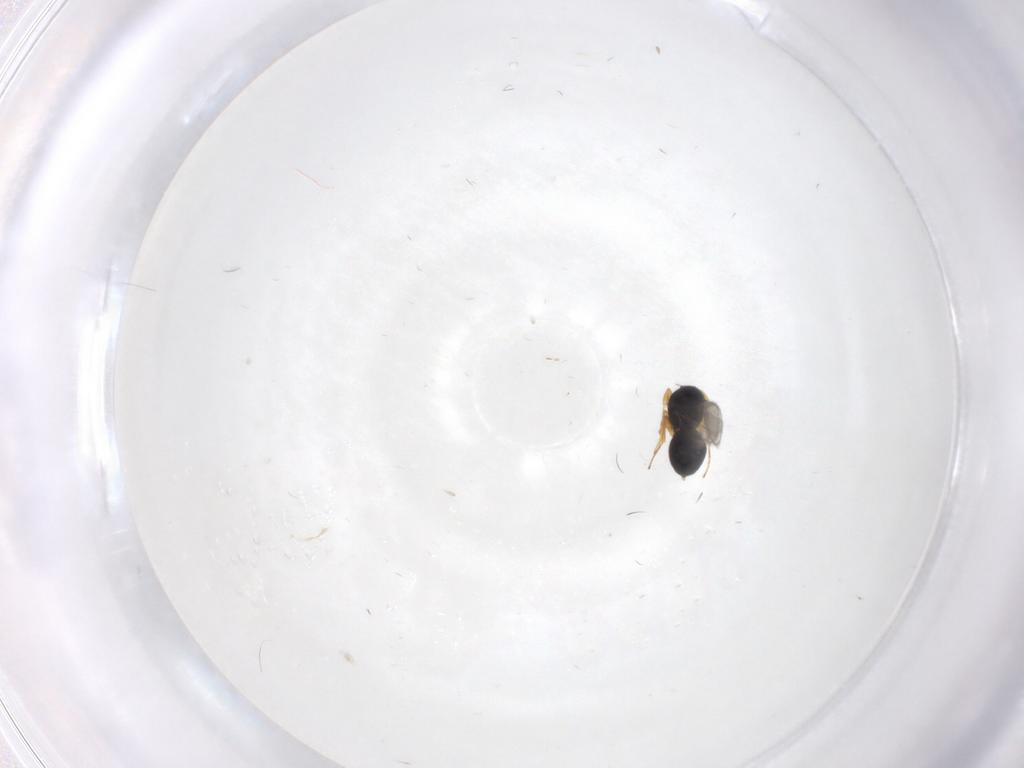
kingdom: Animalia
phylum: Arthropoda
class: Insecta
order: Hymenoptera
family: Scelionidae
